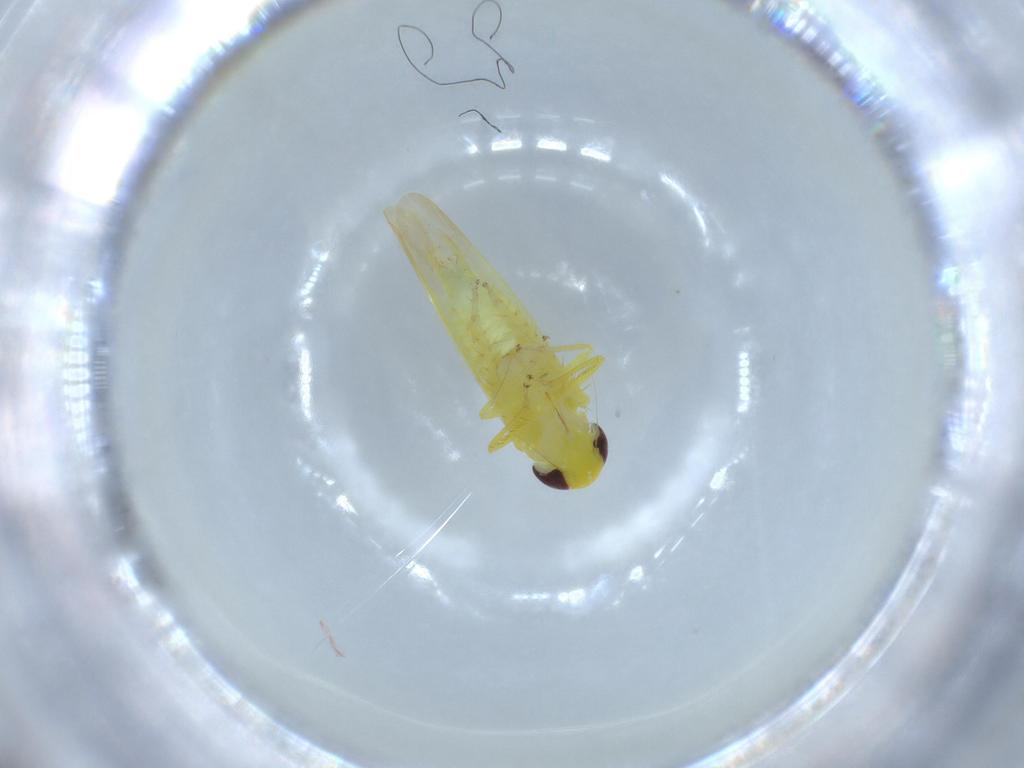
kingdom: Animalia
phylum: Arthropoda
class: Insecta
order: Hemiptera
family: Cicadellidae
